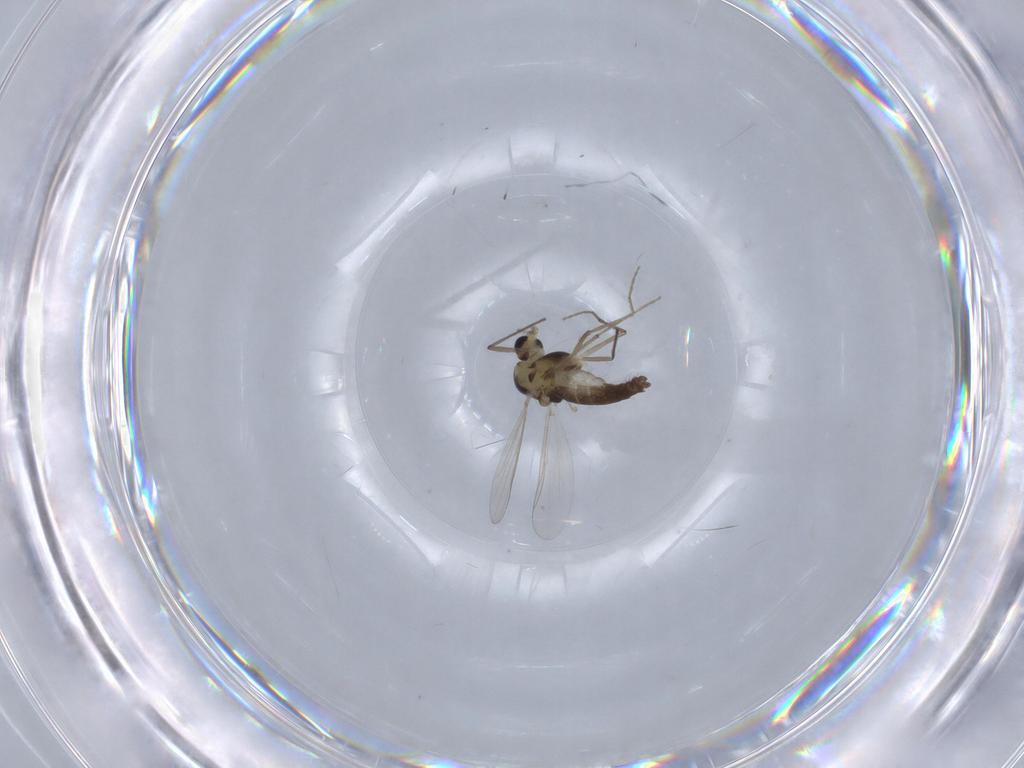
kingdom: Animalia
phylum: Arthropoda
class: Insecta
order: Diptera
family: Chironomidae
